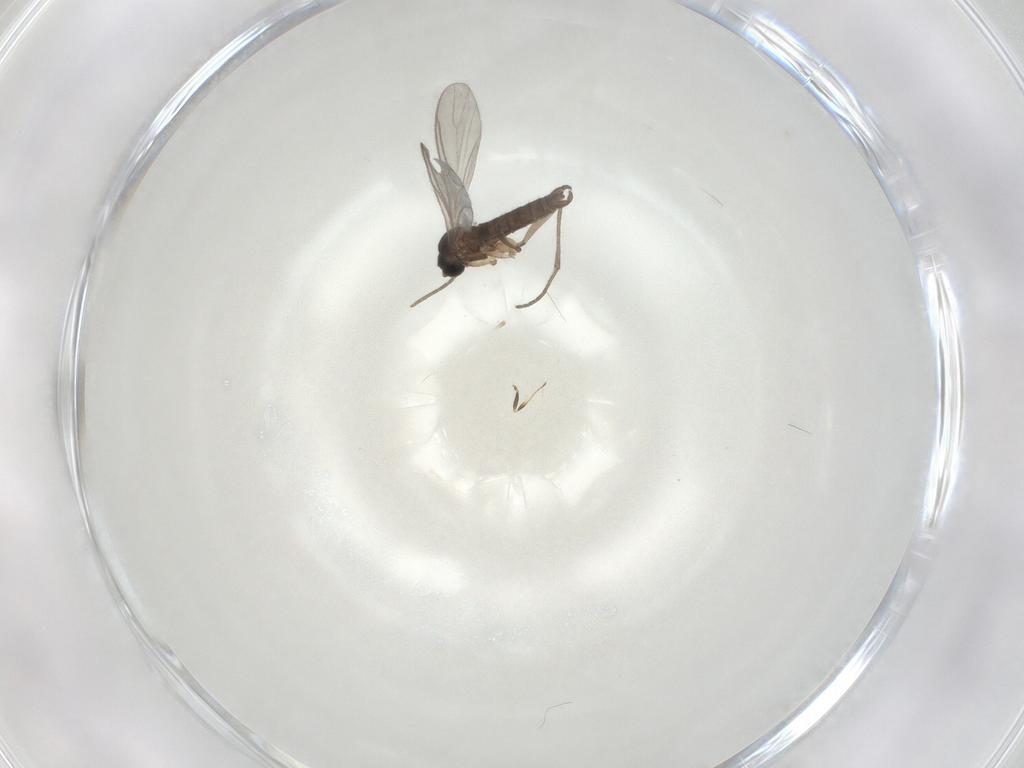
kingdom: Animalia
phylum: Arthropoda
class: Insecta
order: Diptera
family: Sciaridae
